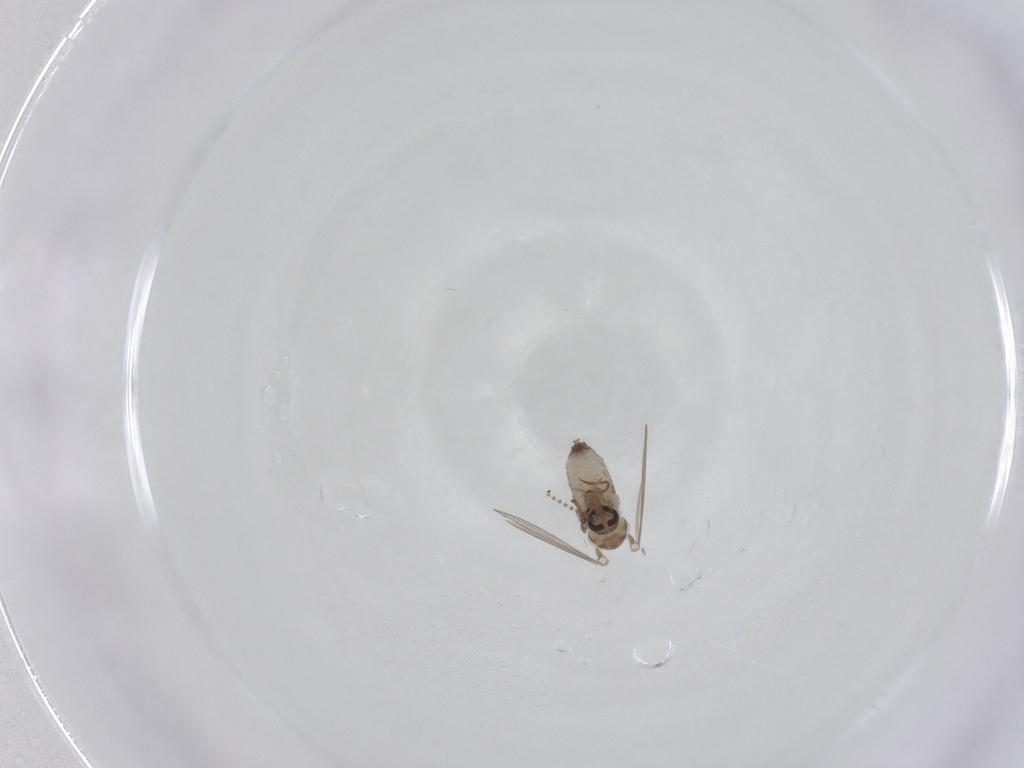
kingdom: Animalia
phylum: Arthropoda
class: Insecta
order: Diptera
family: Psychodidae
